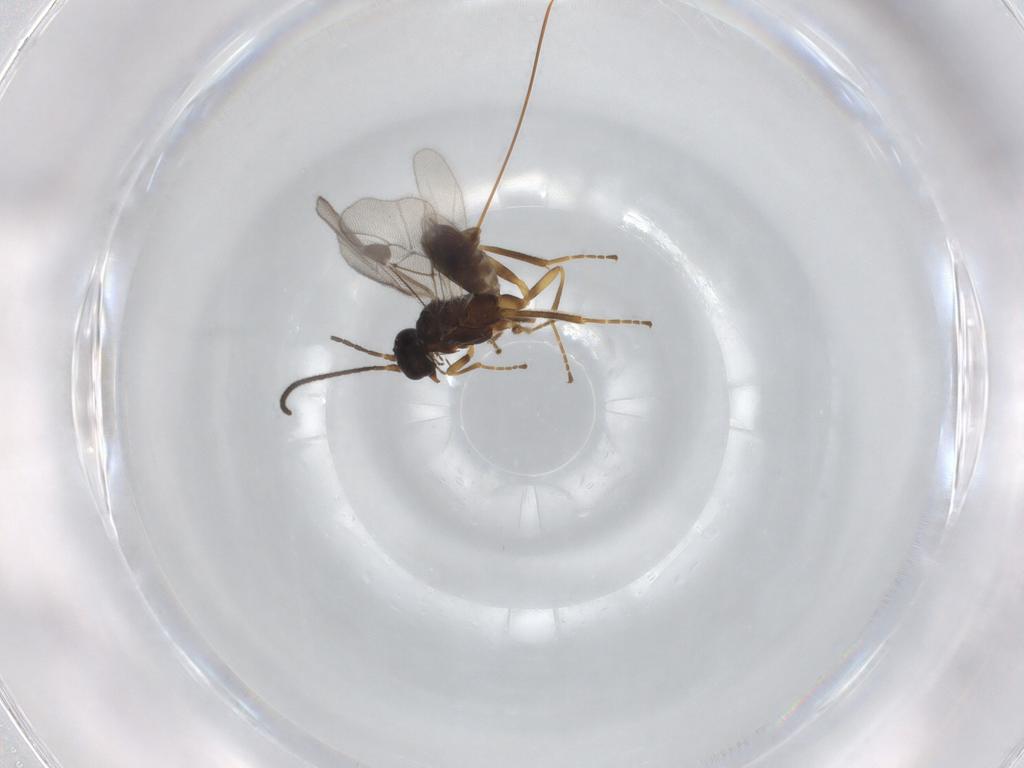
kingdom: Animalia
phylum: Arthropoda
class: Insecta
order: Hymenoptera
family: Braconidae
